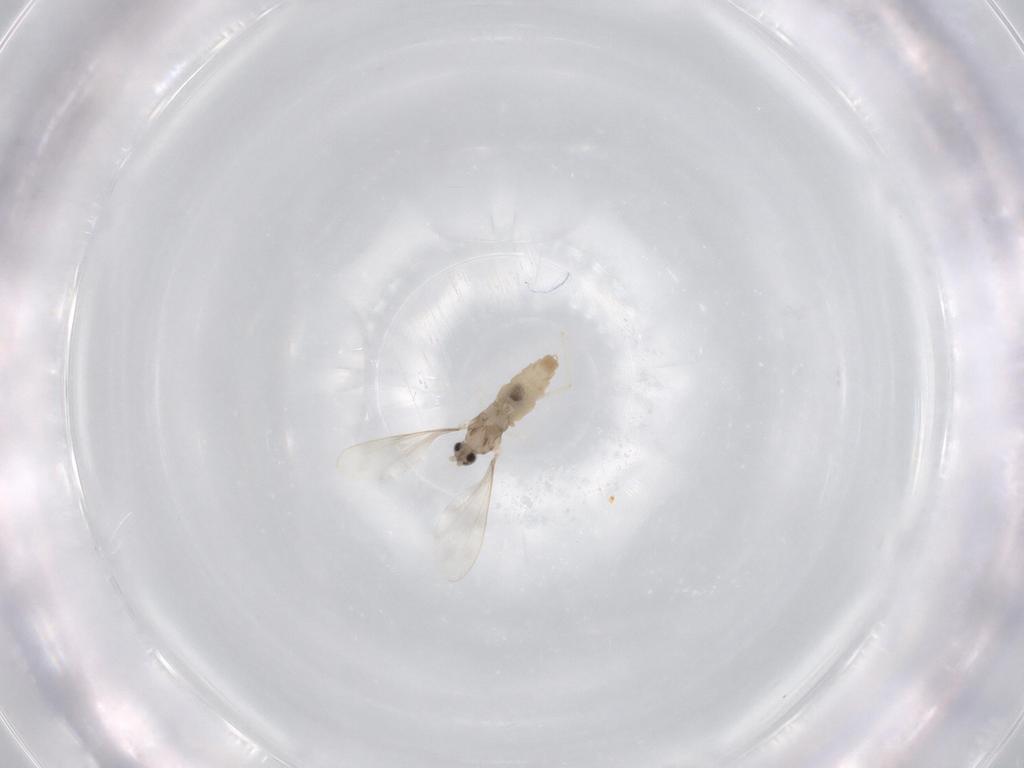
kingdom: Animalia
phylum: Arthropoda
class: Insecta
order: Diptera
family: Cecidomyiidae
